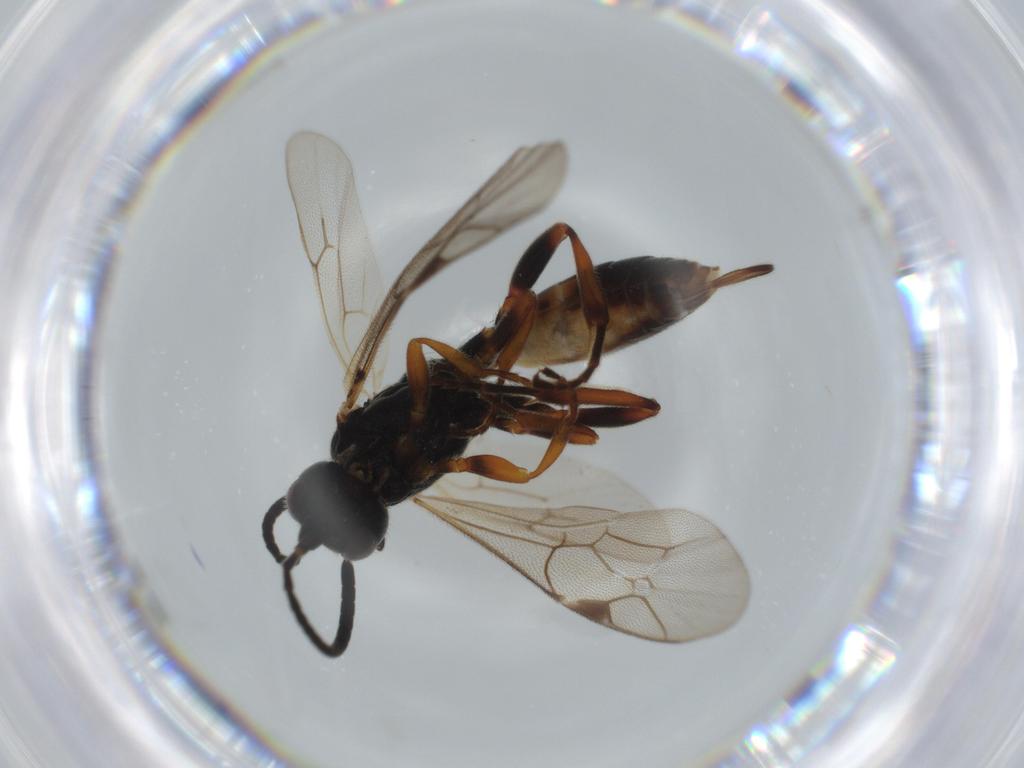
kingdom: Animalia
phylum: Arthropoda
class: Insecta
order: Hymenoptera
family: Ichneumonidae
